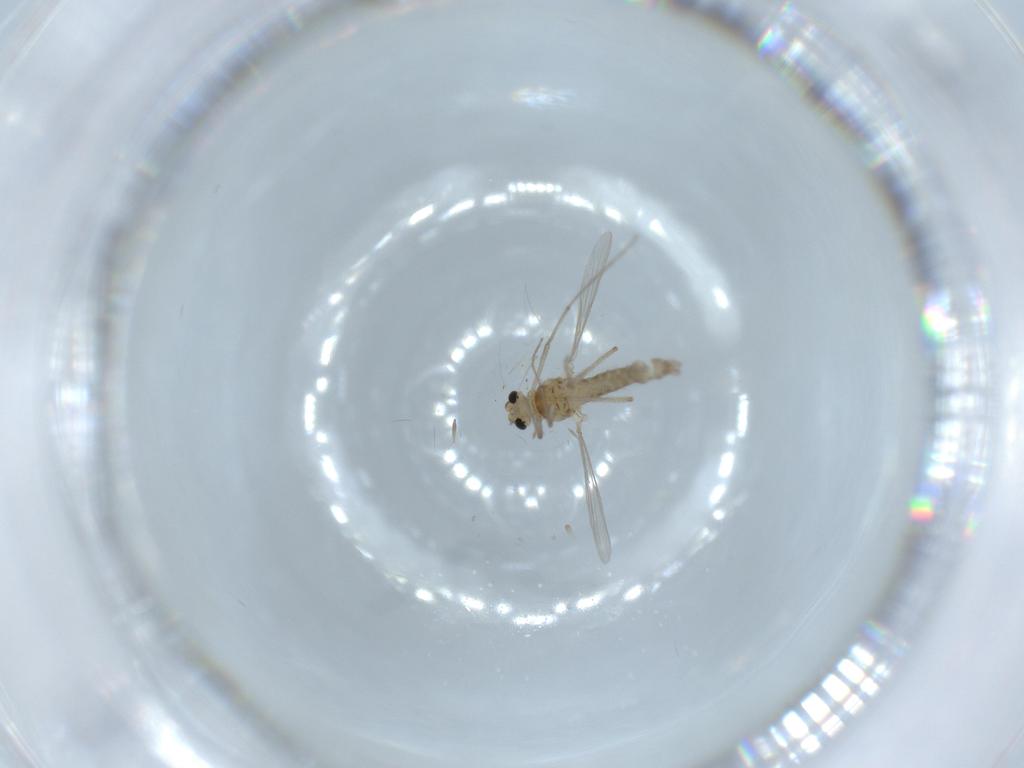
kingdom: Animalia
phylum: Arthropoda
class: Insecta
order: Diptera
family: Chironomidae
